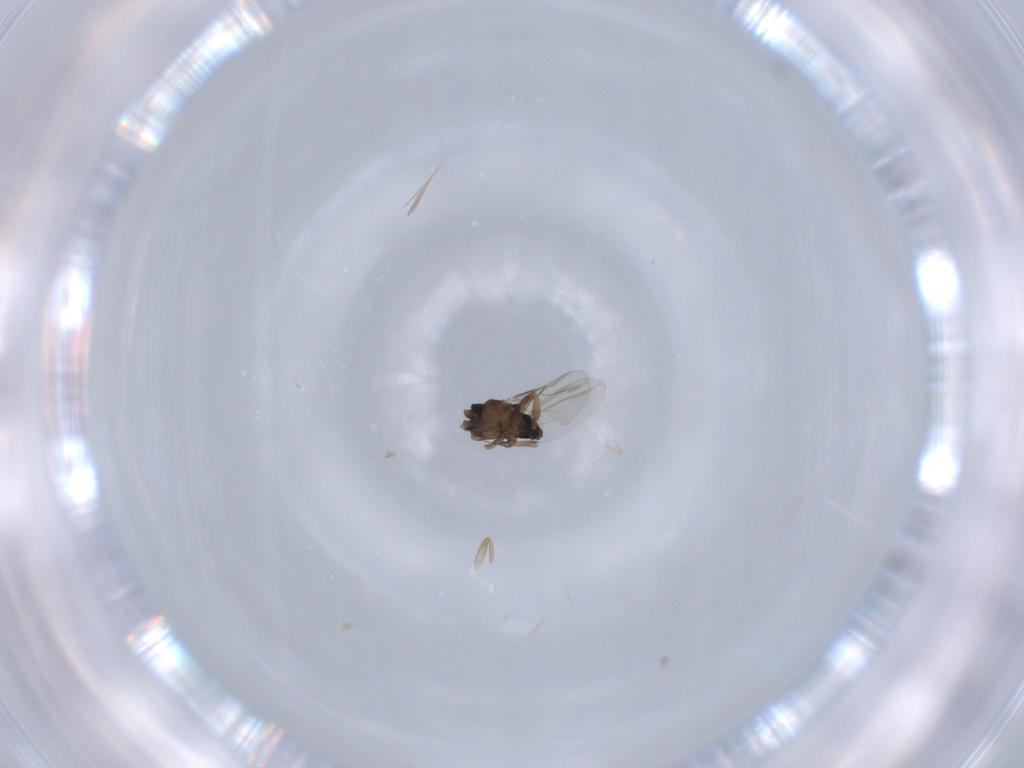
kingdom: Animalia
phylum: Arthropoda
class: Insecta
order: Diptera
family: Phoridae
